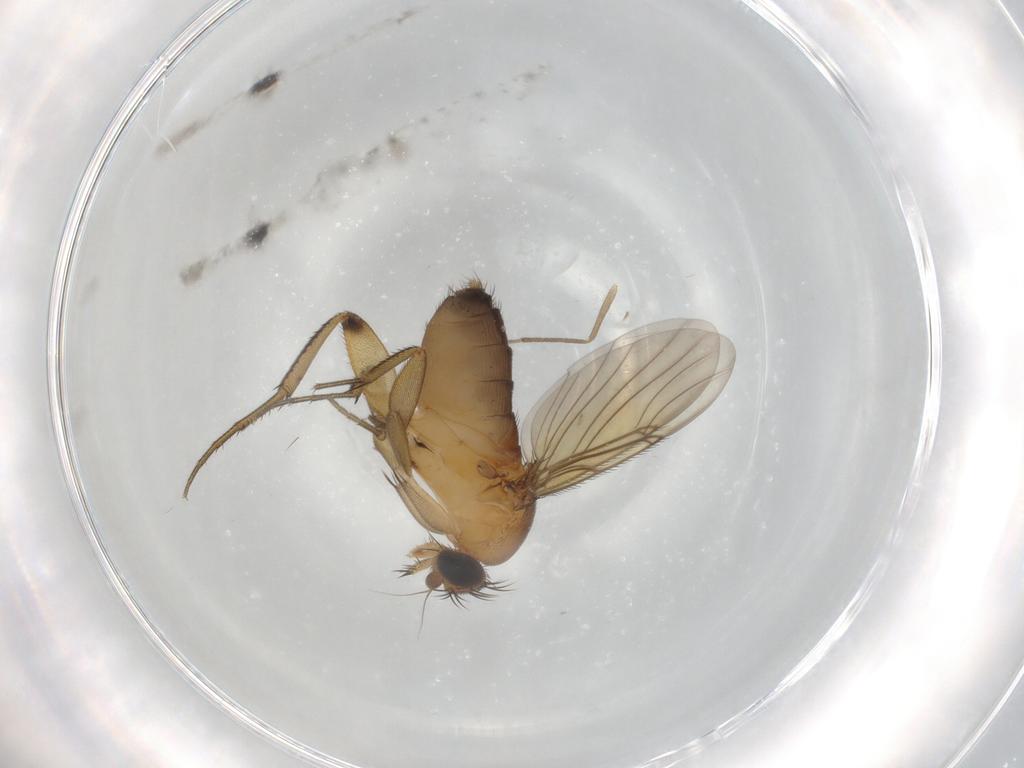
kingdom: Animalia
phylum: Arthropoda
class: Insecta
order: Diptera
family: Phoridae
